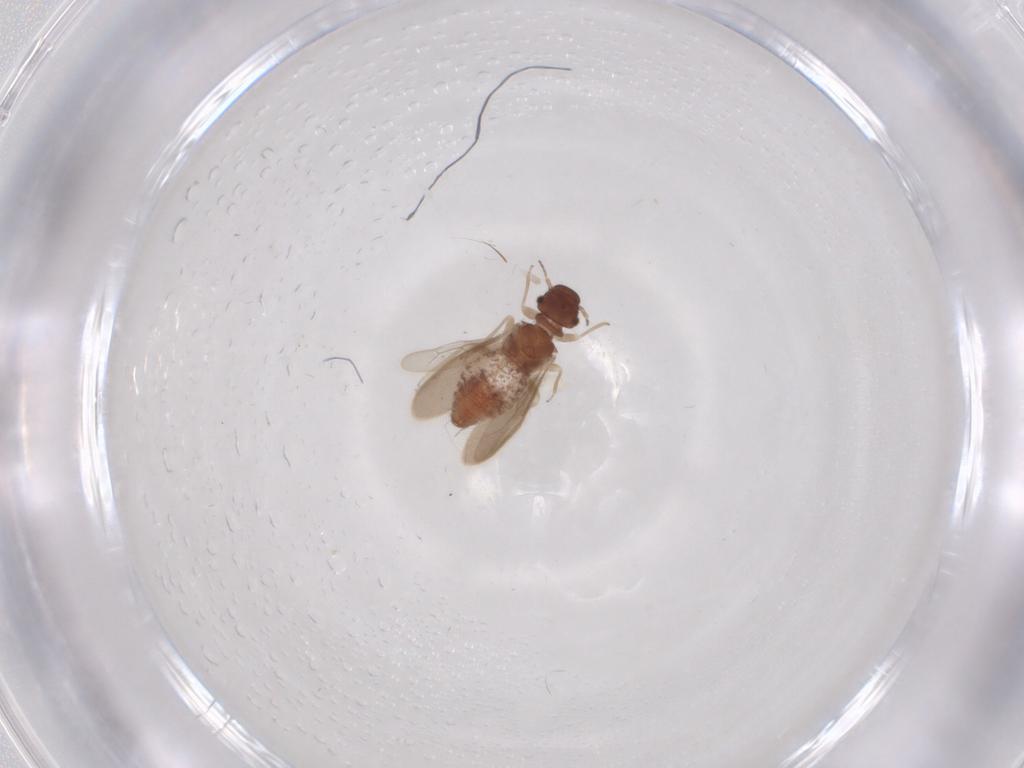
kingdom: Animalia
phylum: Arthropoda
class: Insecta
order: Psocodea
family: Archipsocidae
